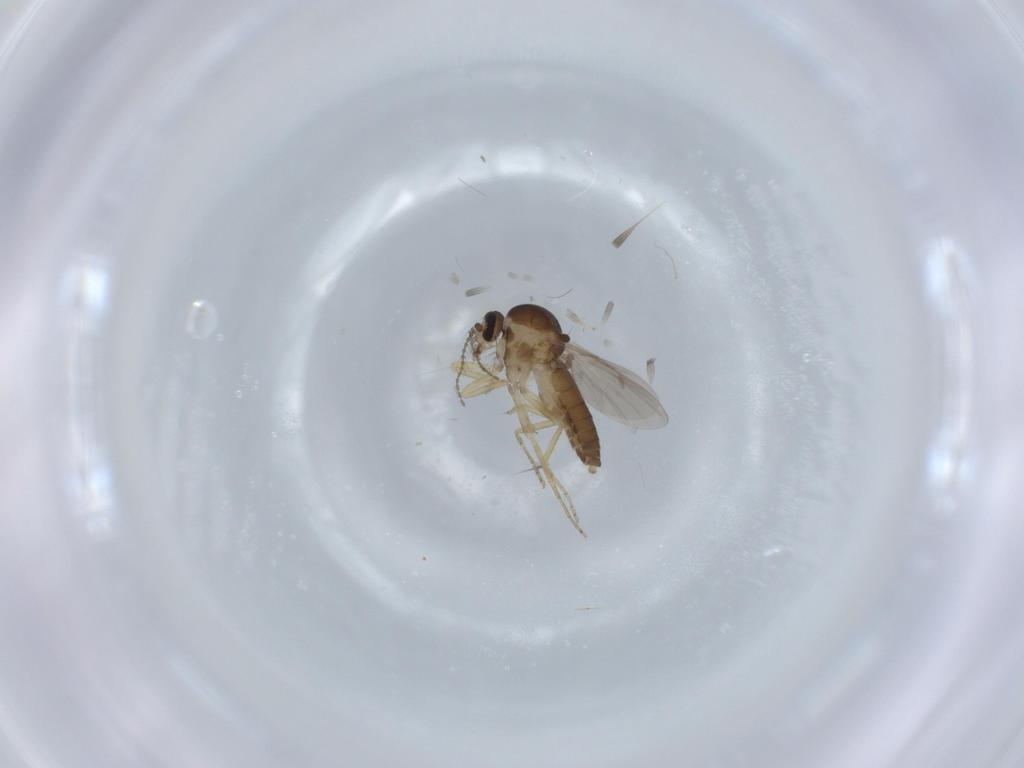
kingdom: Animalia
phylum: Arthropoda
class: Insecta
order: Diptera
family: Ceratopogonidae
